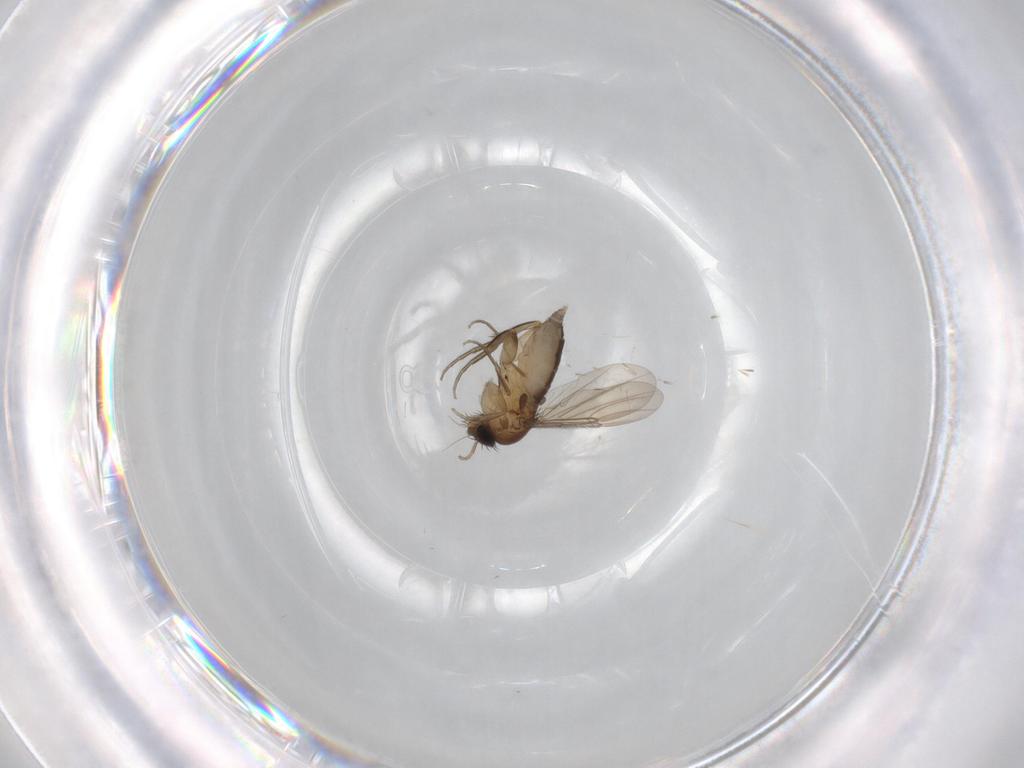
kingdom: Animalia
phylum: Arthropoda
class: Insecta
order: Diptera
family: Phoridae
